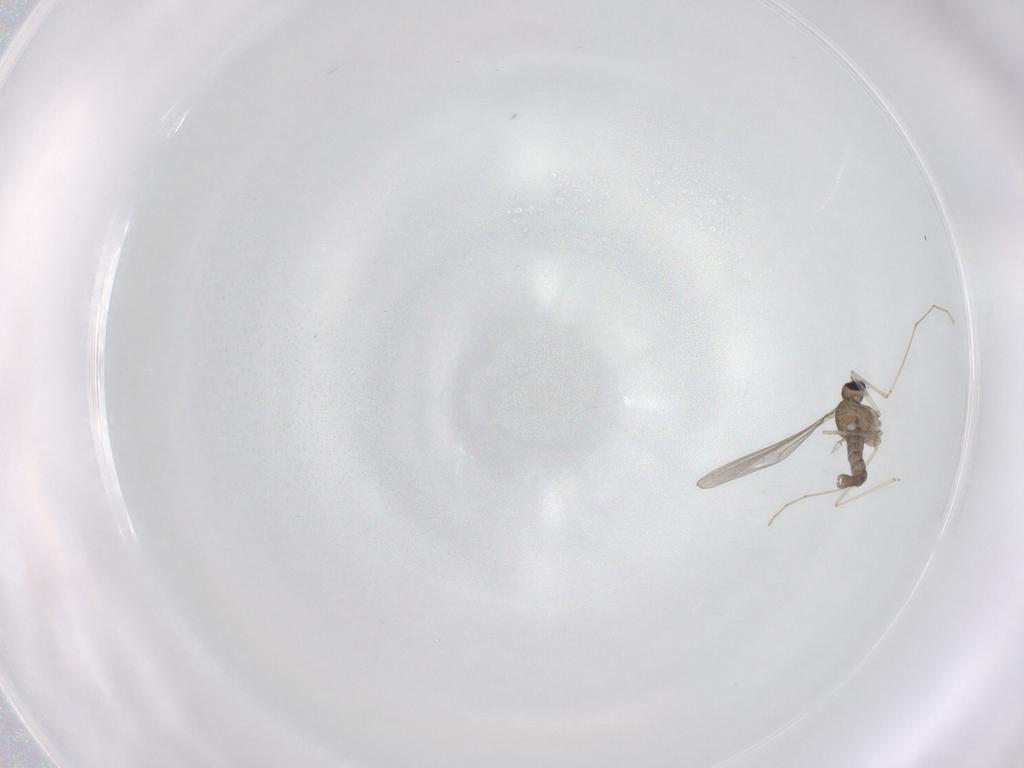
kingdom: Animalia
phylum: Arthropoda
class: Insecta
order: Diptera
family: Cecidomyiidae
